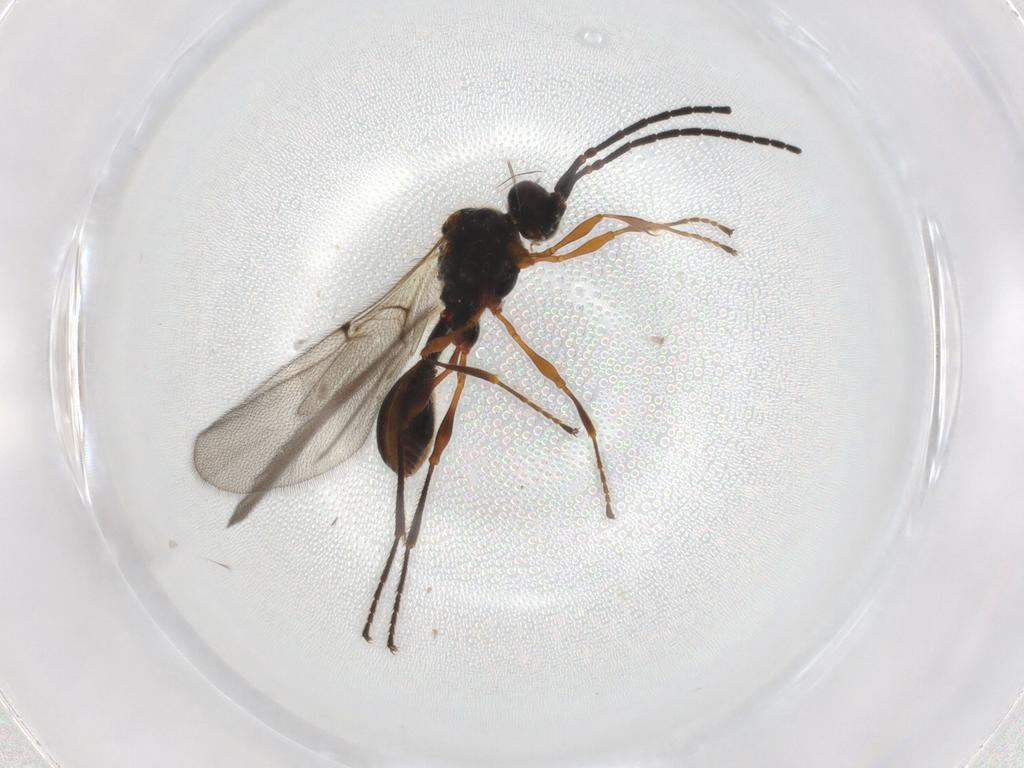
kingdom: Animalia
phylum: Arthropoda
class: Insecta
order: Hymenoptera
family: Diapriidae
